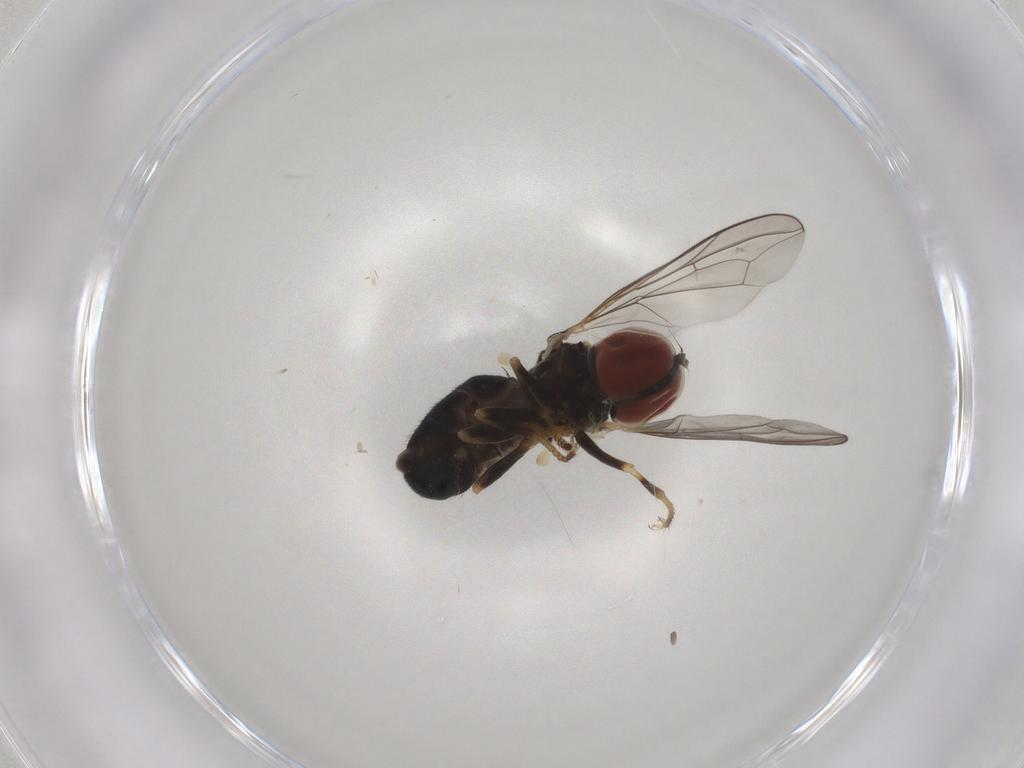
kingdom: Animalia
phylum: Arthropoda
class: Insecta
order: Diptera
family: Pipunculidae
